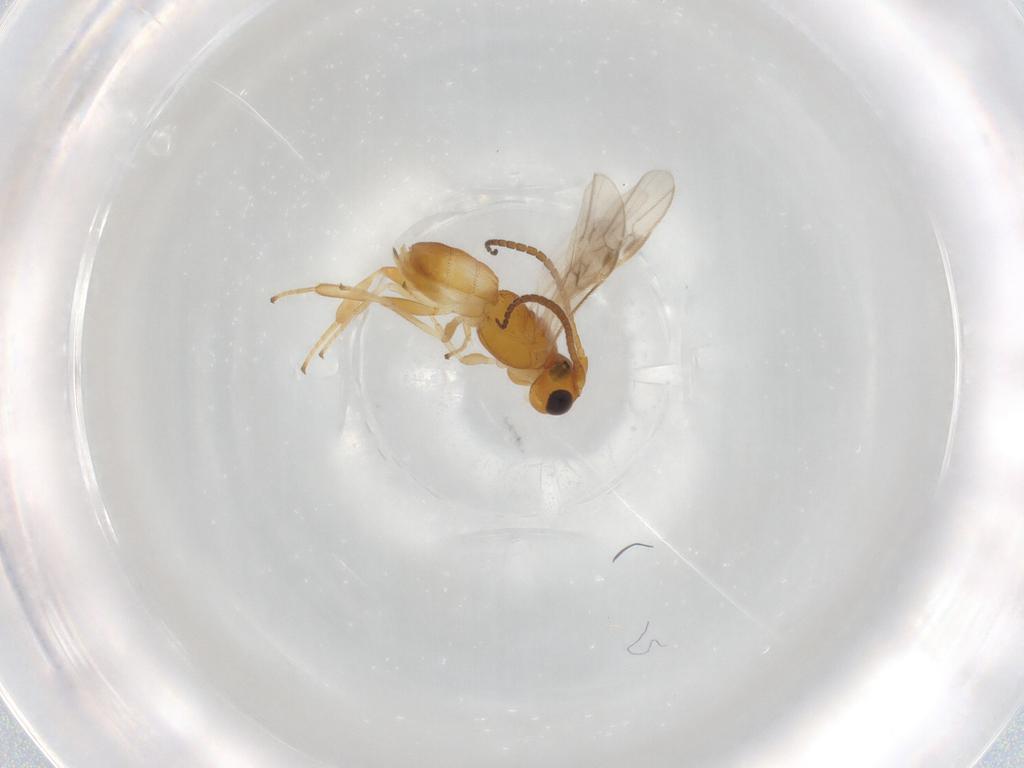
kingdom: Animalia
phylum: Arthropoda
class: Insecta
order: Hymenoptera
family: Braconidae
